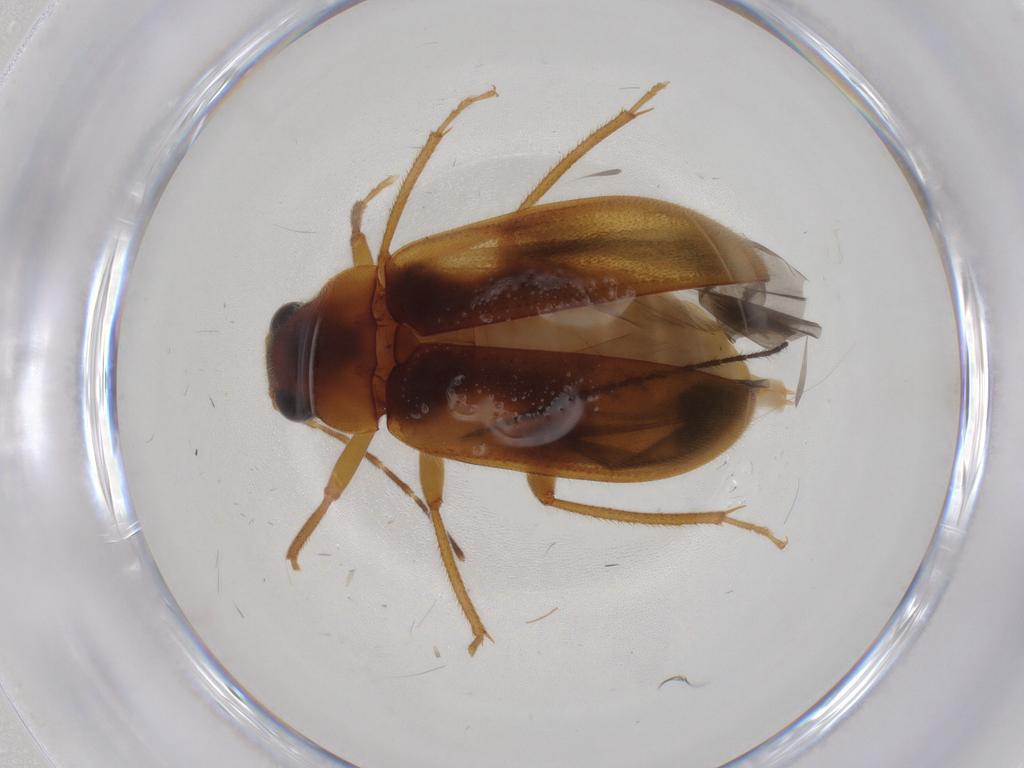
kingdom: Animalia
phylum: Arthropoda
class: Insecta
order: Coleoptera
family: Ptilodactylidae
